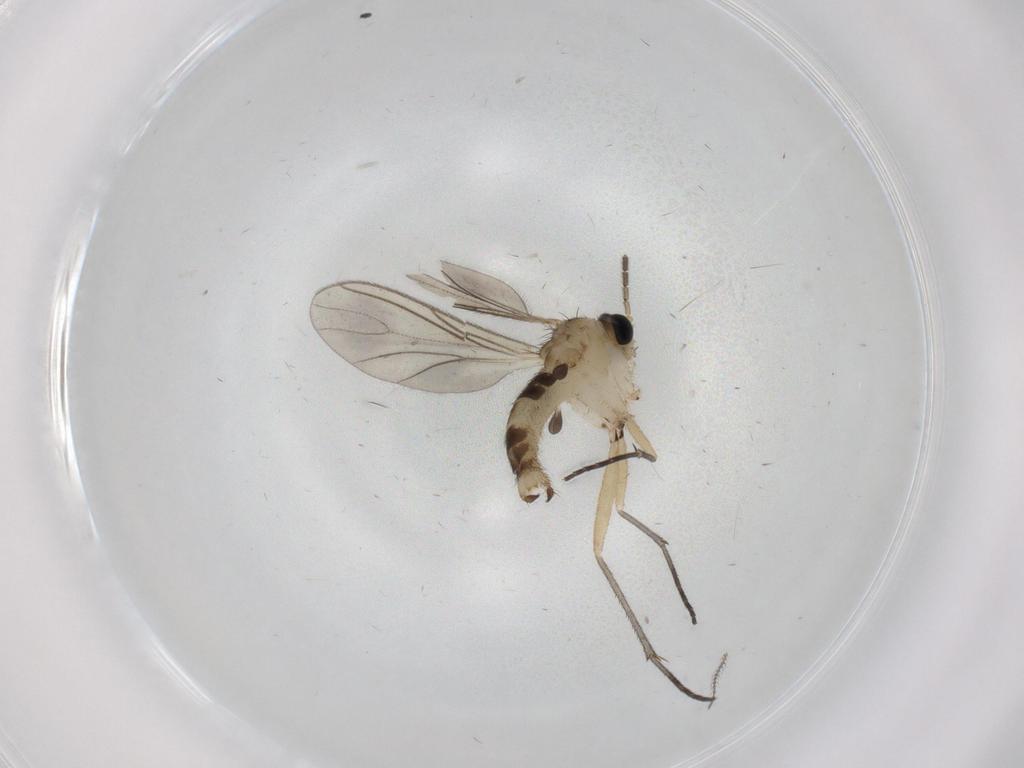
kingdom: Animalia
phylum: Arthropoda
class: Insecta
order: Diptera
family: Sciaridae
